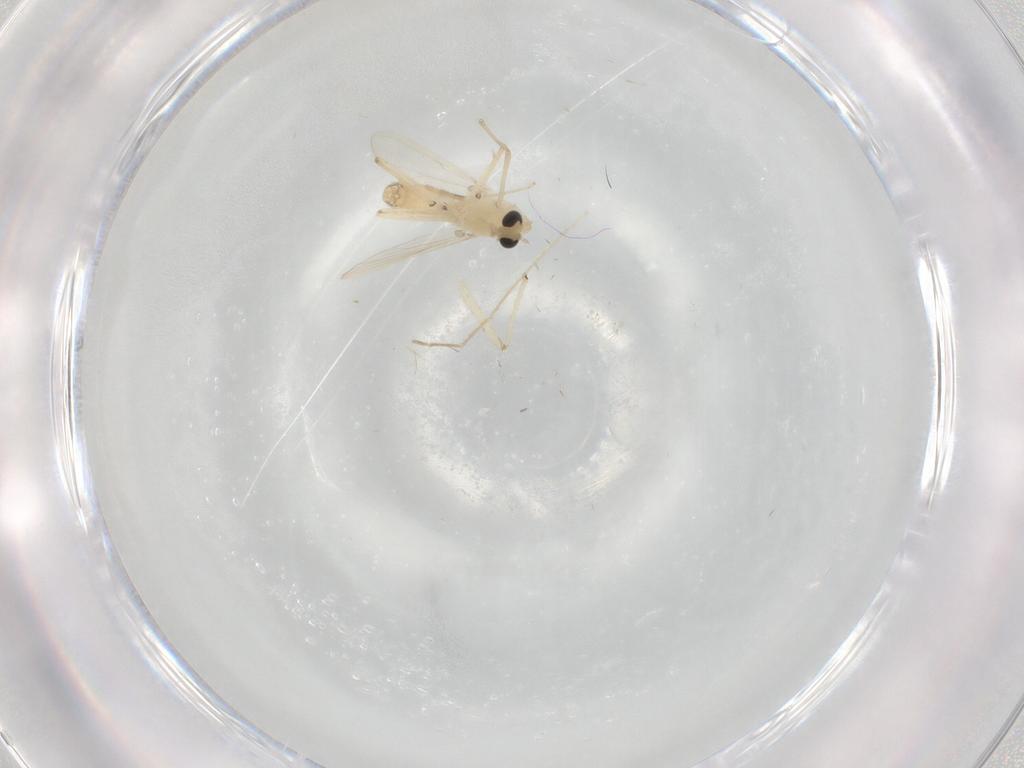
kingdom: Animalia
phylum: Arthropoda
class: Insecta
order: Diptera
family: Chironomidae
